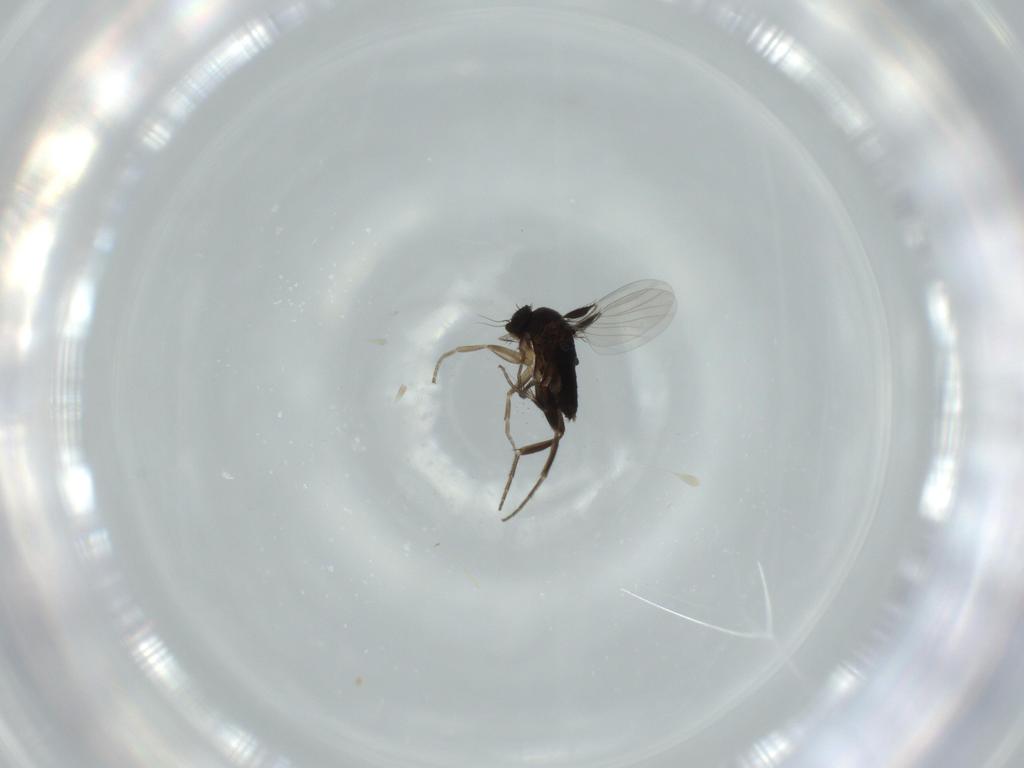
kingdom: Animalia
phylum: Arthropoda
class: Insecta
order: Diptera
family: Phoridae
